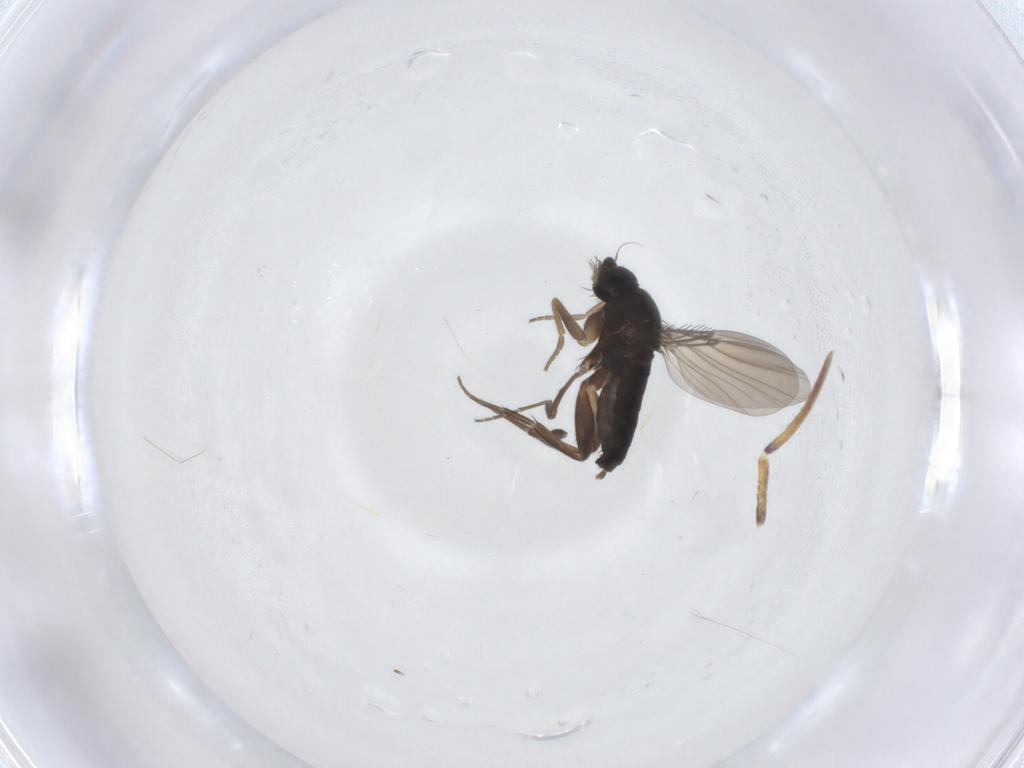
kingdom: Animalia
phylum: Arthropoda
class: Insecta
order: Diptera
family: Phoridae
